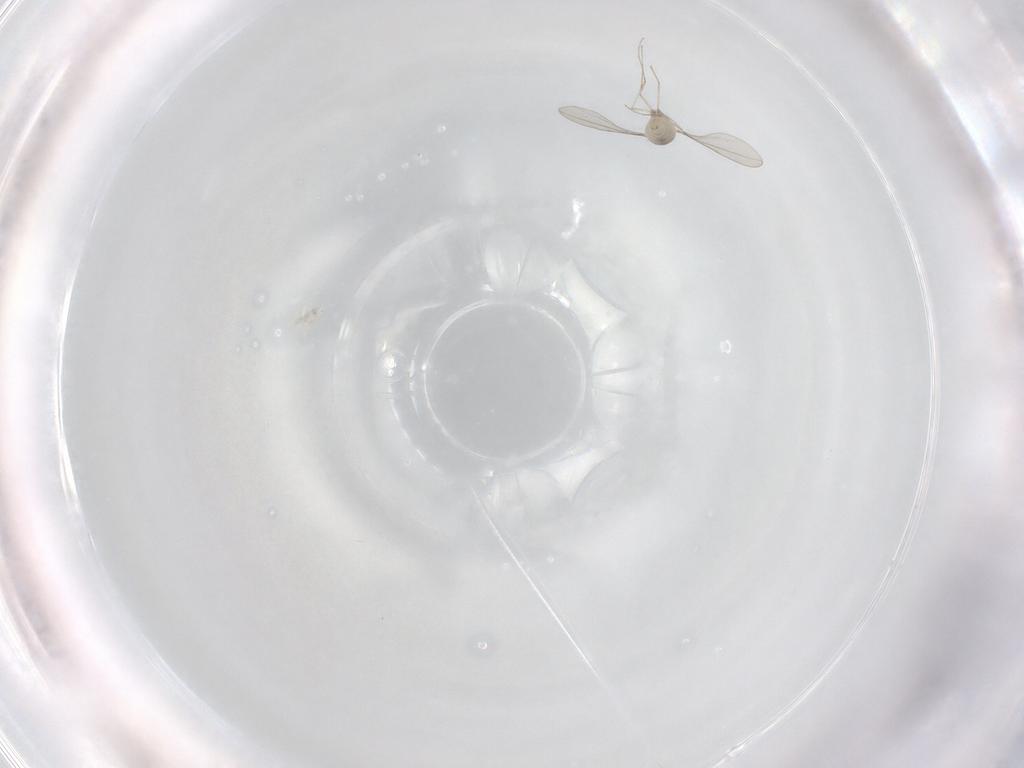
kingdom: Animalia
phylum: Arthropoda
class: Insecta
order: Diptera
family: Cecidomyiidae
